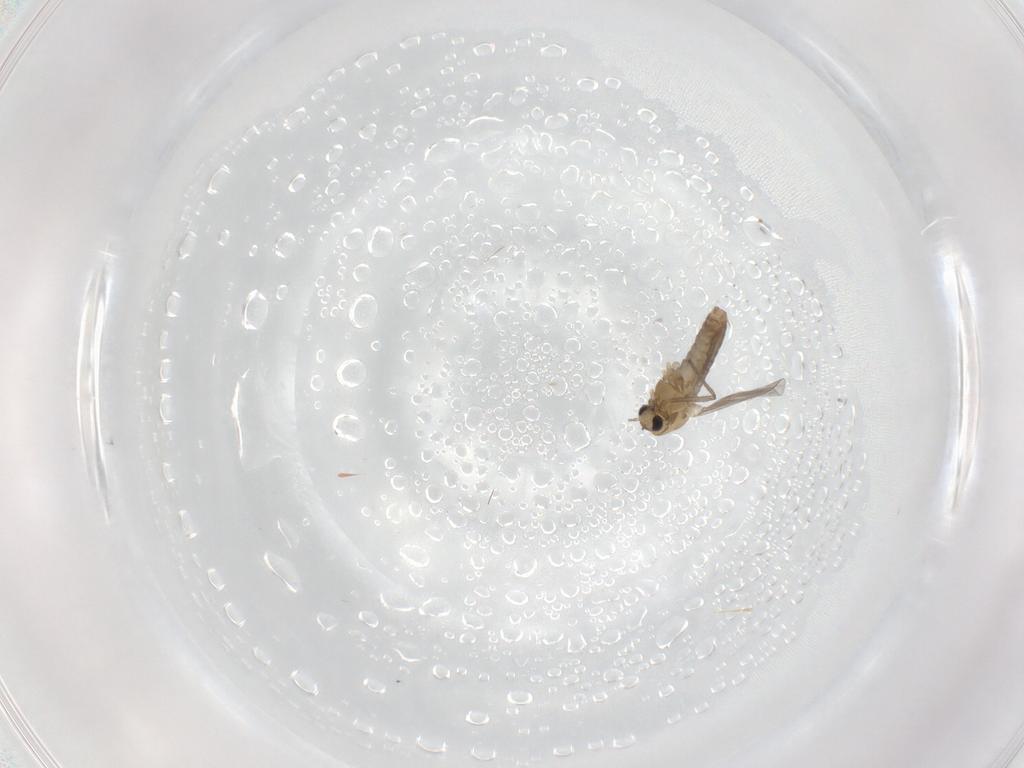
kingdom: Animalia
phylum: Arthropoda
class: Insecta
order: Diptera
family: Chironomidae
